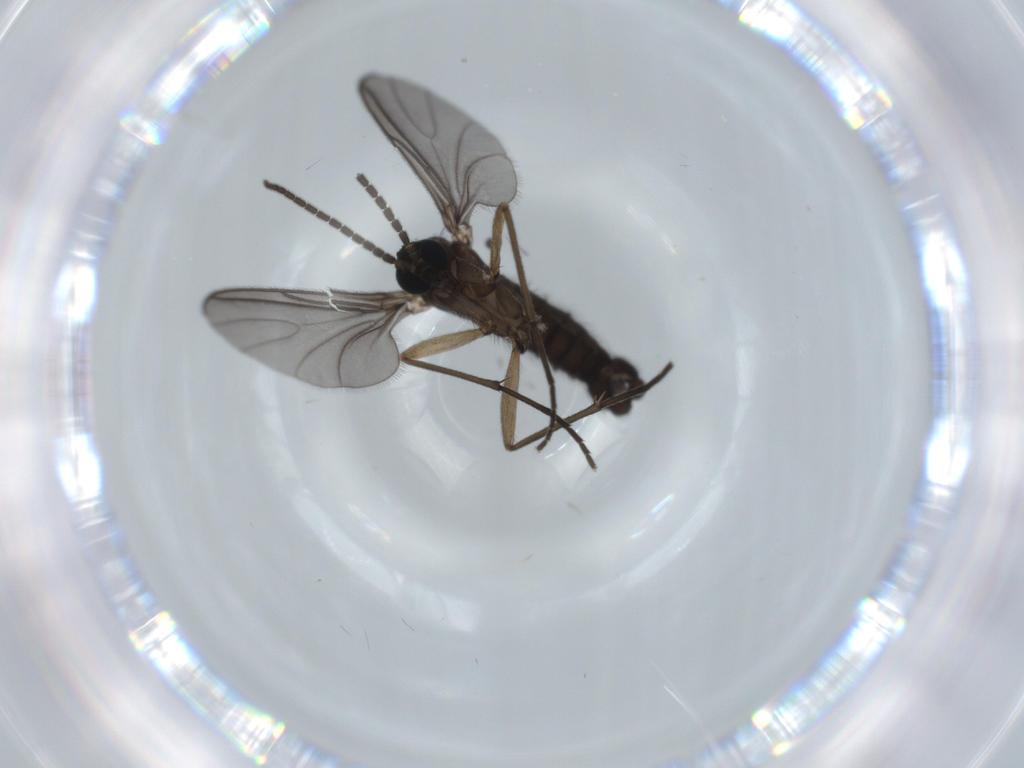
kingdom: Animalia
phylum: Arthropoda
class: Insecta
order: Diptera
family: Sciaridae
